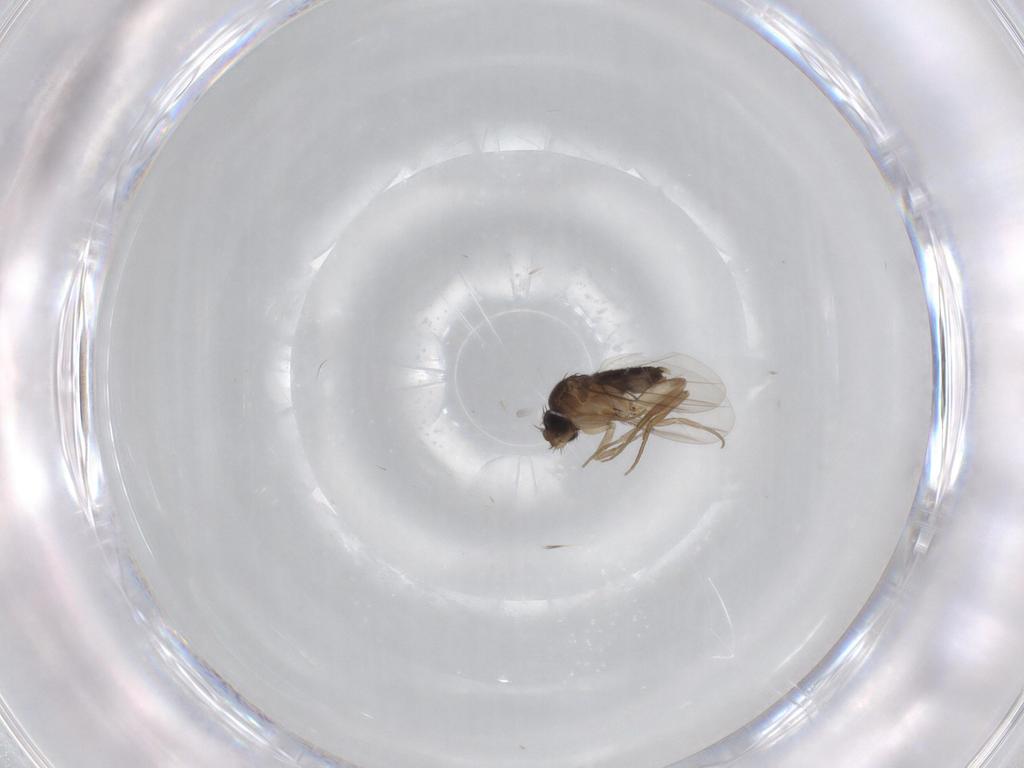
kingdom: Animalia
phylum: Arthropoda
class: Insecta
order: Diptera
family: Phoridae
